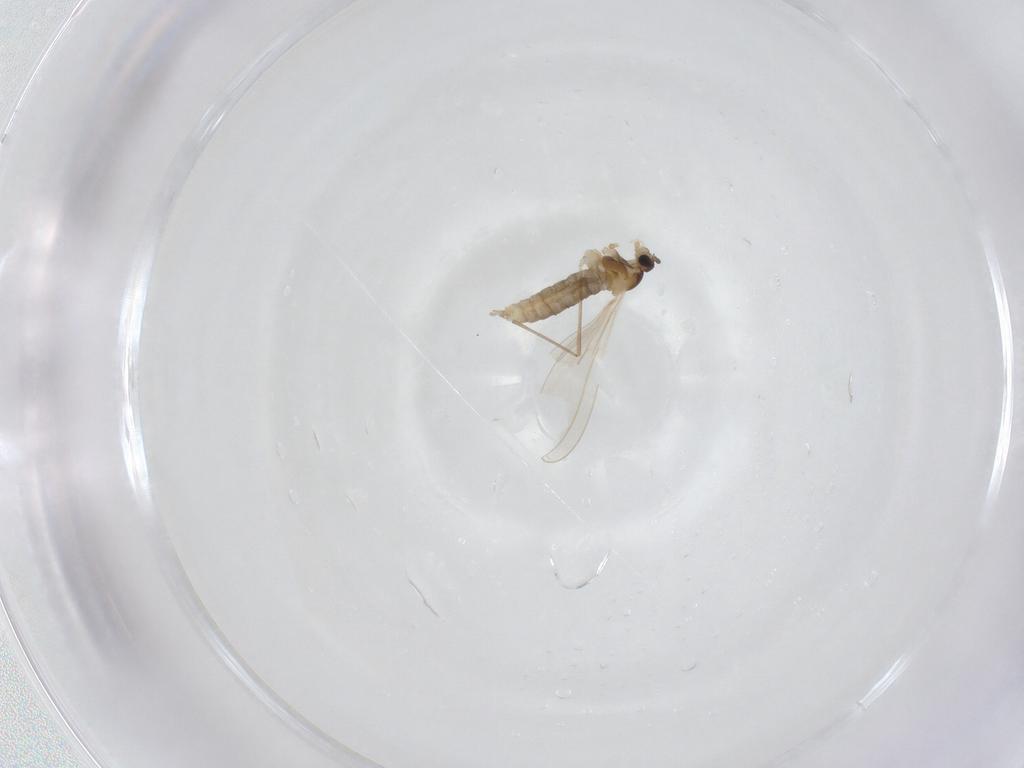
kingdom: Animalia
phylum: Arthropoda
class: Insecta
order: Diptera
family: Cecidomyiidae
